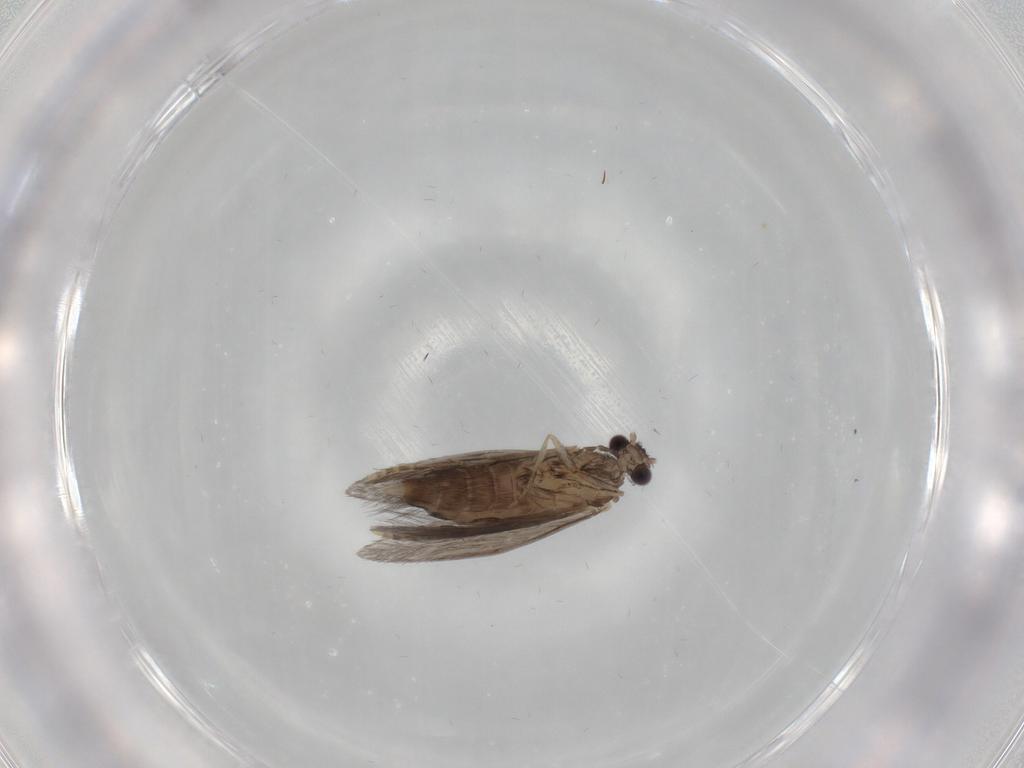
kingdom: Animalia
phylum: Arthropoda
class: Insecta
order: Trichoptera
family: Hydroptilidae
